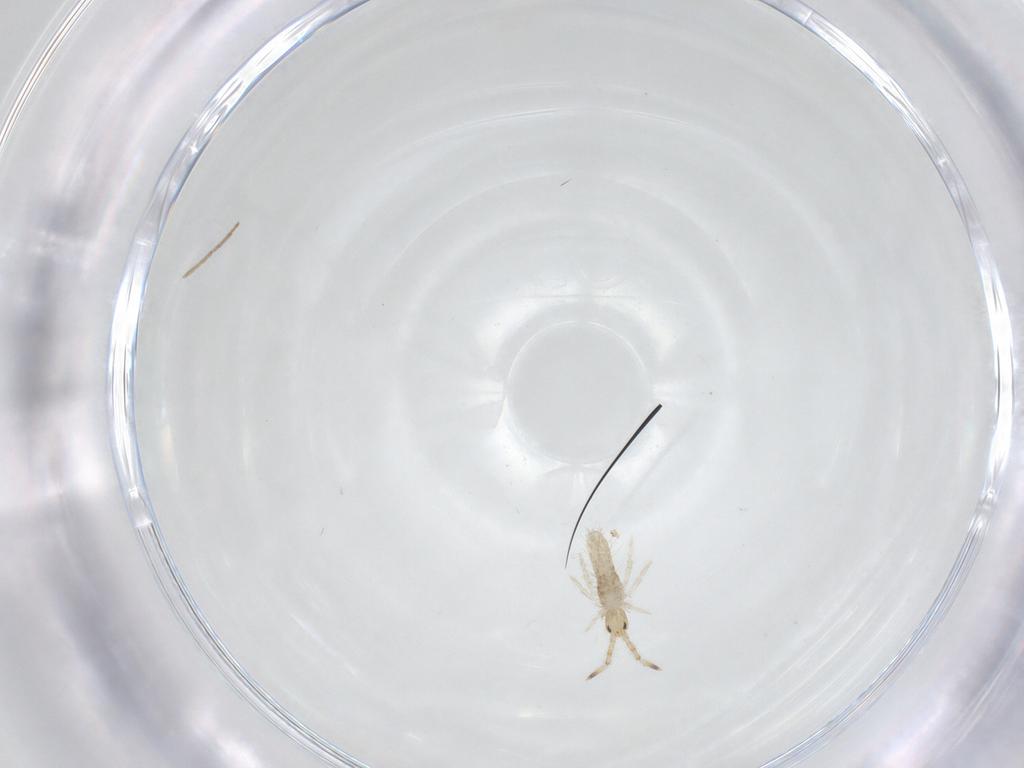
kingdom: Animalia
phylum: Arthropoda
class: Collembola
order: Entomobryomorpha
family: Entomobryidae
